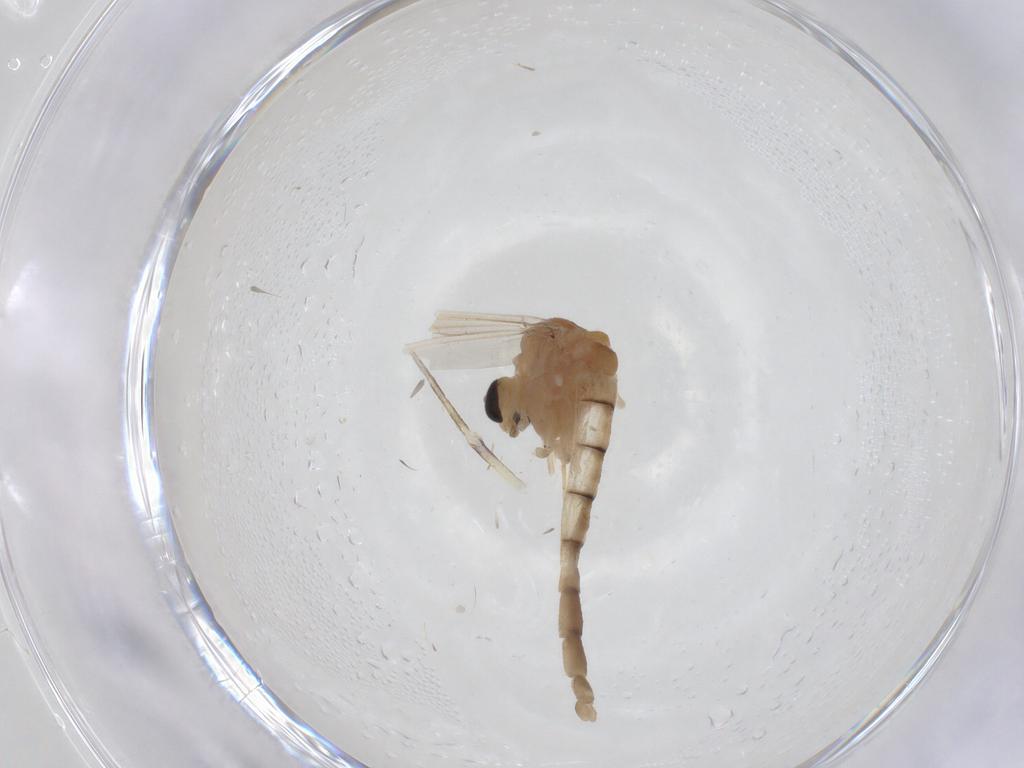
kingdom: Animalia
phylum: Arthropoda
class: Insecta
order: Diptera
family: Chironomidae
